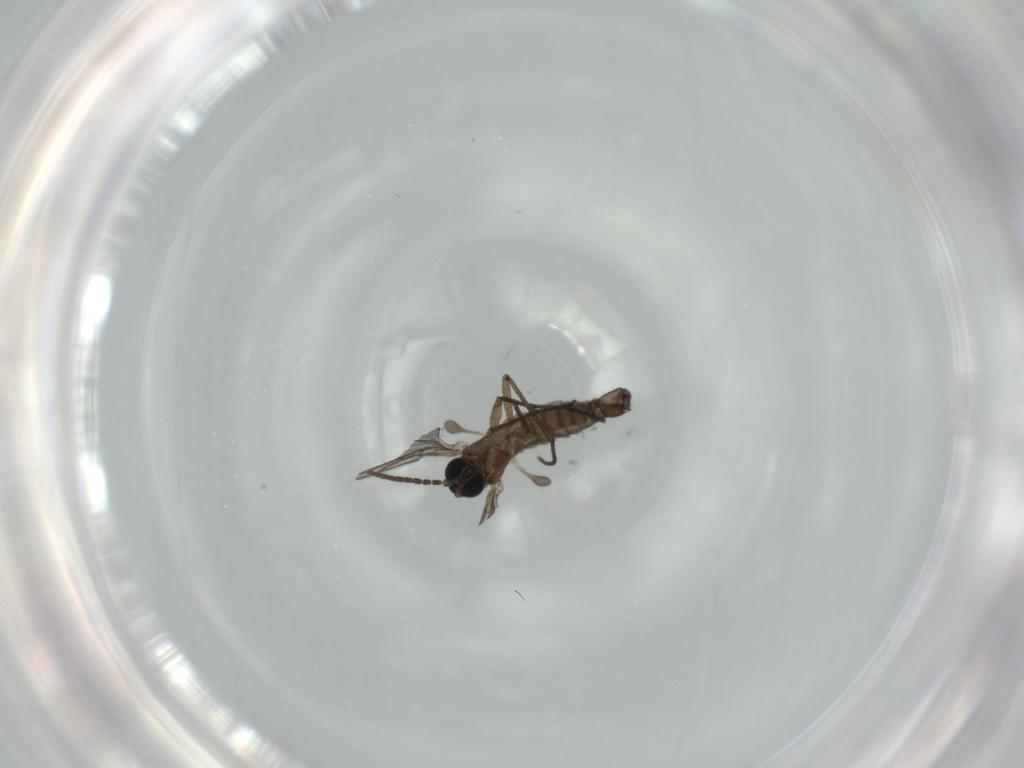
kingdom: Animalia
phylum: Arthropoda
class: Insecta
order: Diptera
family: Sciaridae
